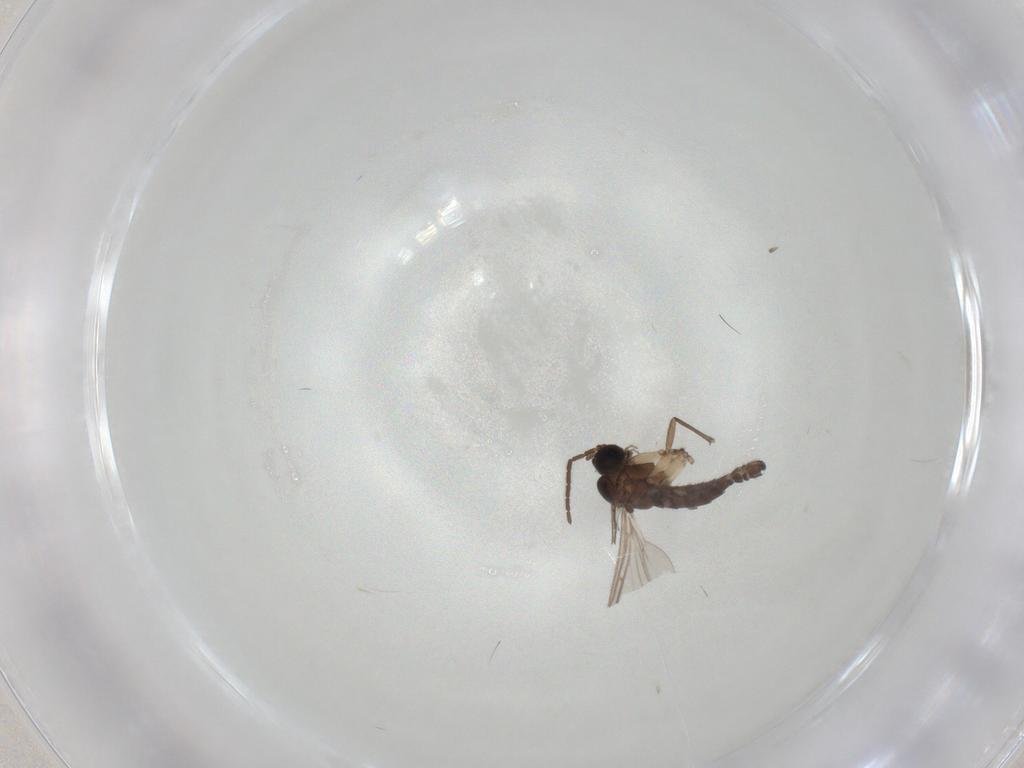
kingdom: Animalia
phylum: Arthropoda
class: Insecta
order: Diptera
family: Sciaridae
